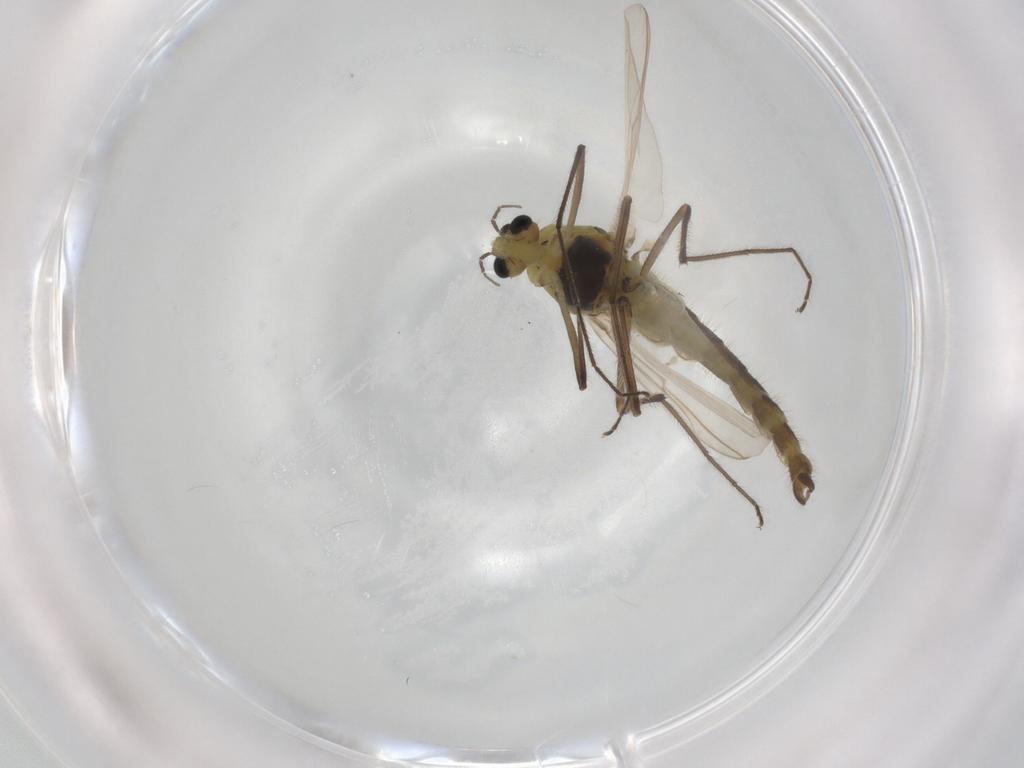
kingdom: Animalia
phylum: Arthropoda
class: Insecta
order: Diptera
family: Chironomidae
